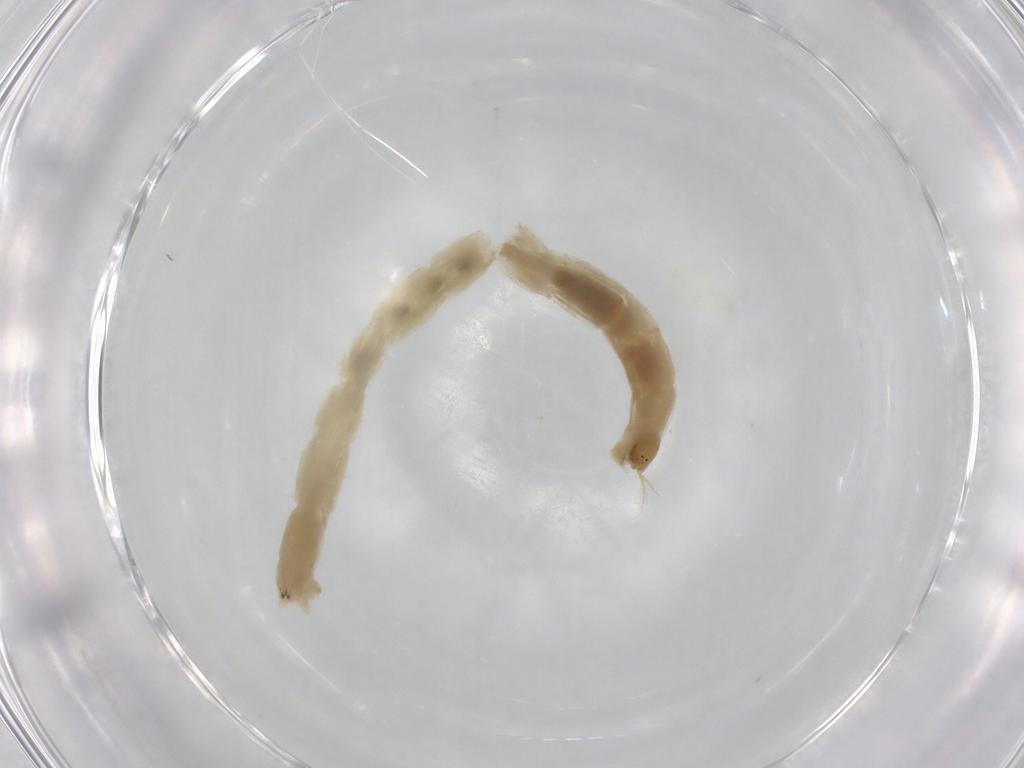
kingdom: Animalia
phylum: Arthropoda
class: Insecta
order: Diptera
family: Chironomidae
